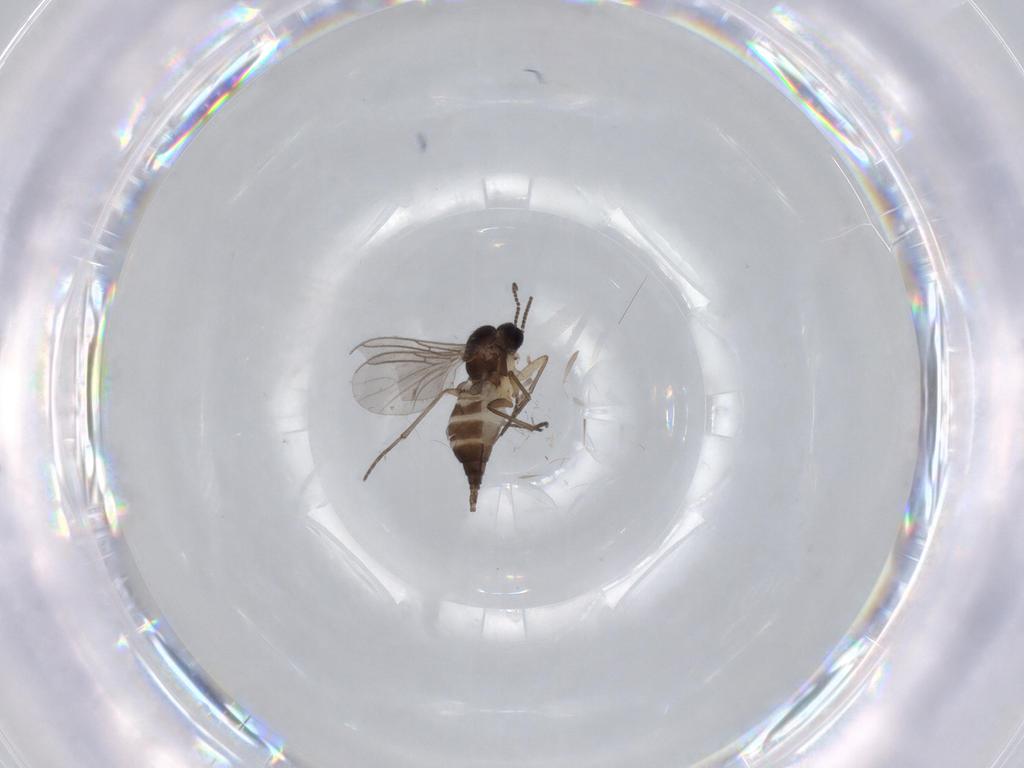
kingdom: Animalia
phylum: Arthropoda
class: Insecta
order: Diptera
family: Sciaridae
